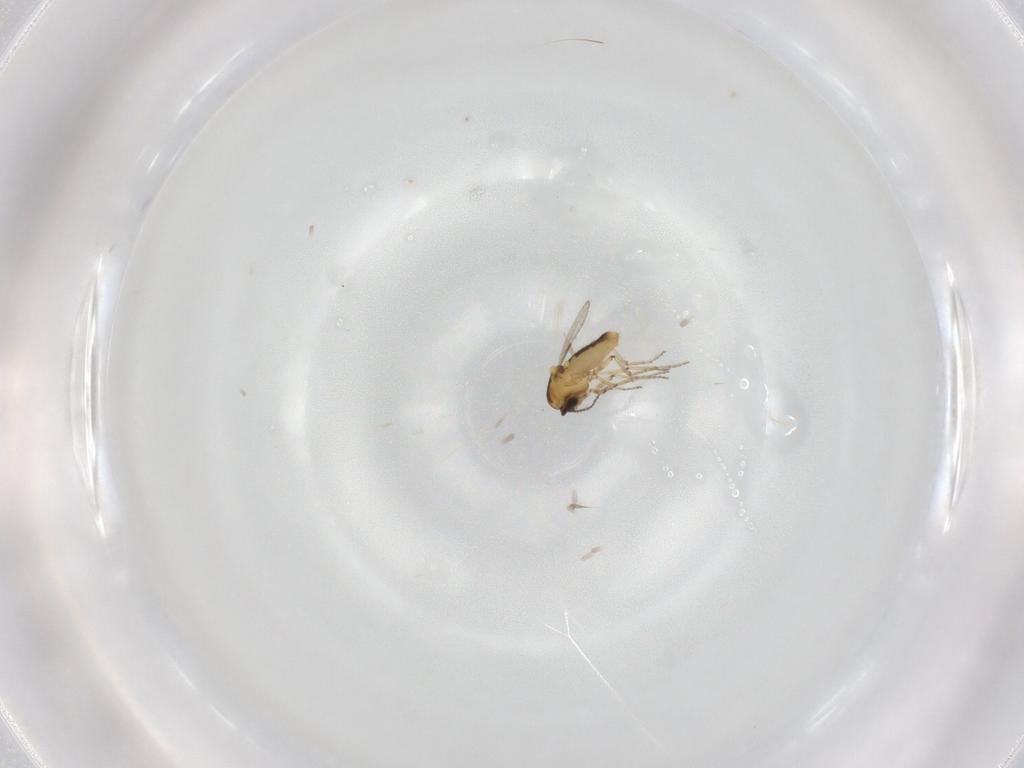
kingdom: Animalia
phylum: Arthropoda
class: Insecta
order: Diptera
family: Ceratopogonidae
